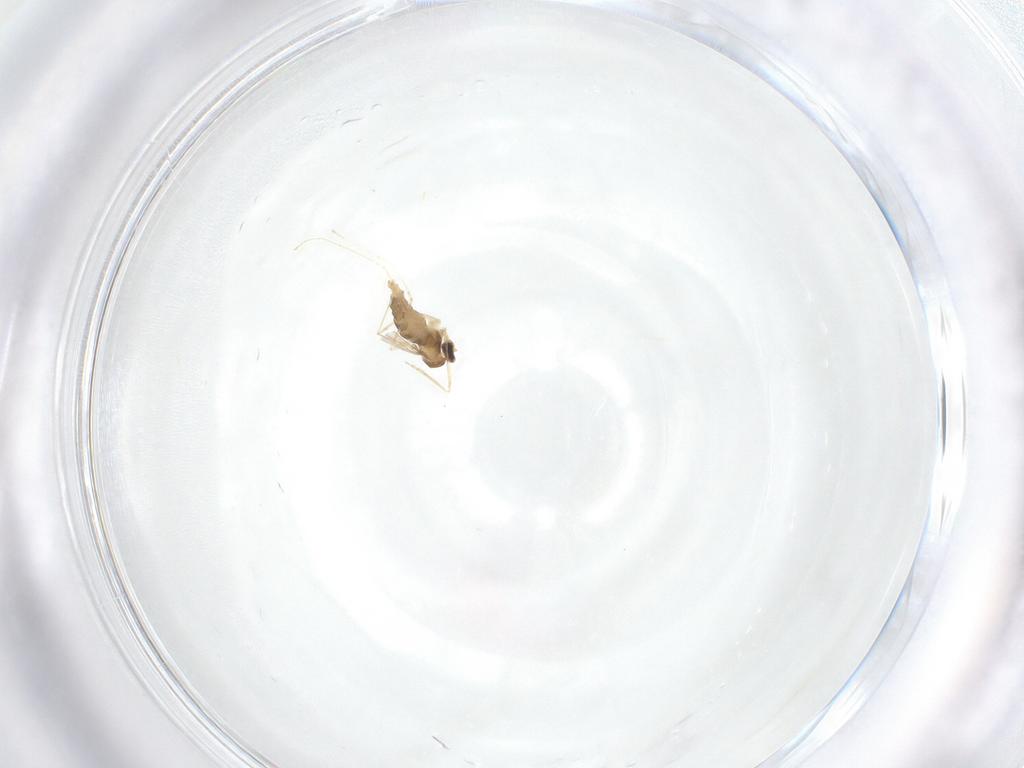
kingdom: Animalia
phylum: Arthropoda
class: Insecta
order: Diptera
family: Cecidomyiidae
